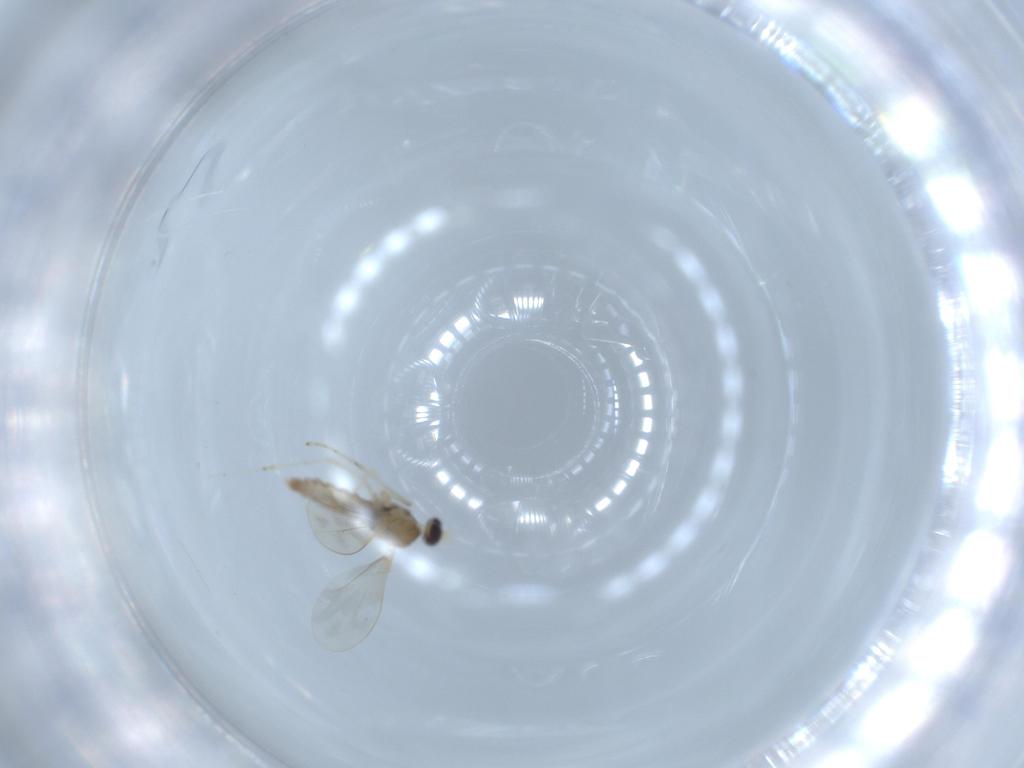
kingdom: Animalia
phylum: Arthropoda
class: Insecta
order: Diptera
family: Cecidomyiidae
